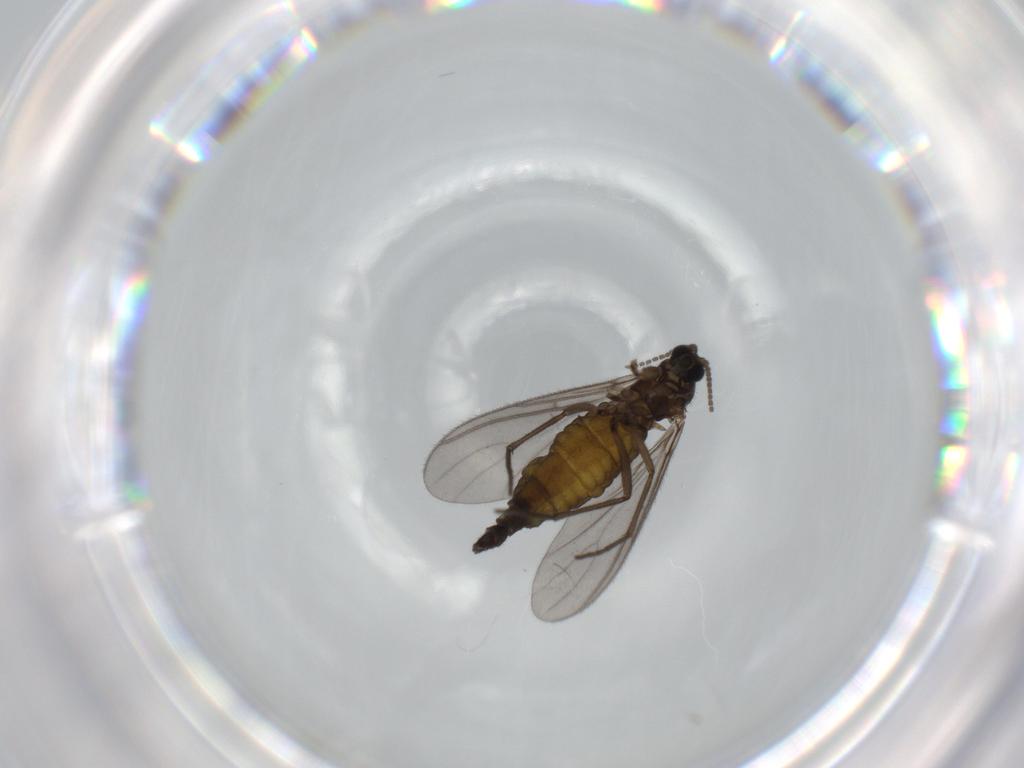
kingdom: Animalia
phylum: Arthropoda
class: Insecta
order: Diptera
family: Sciaridae
